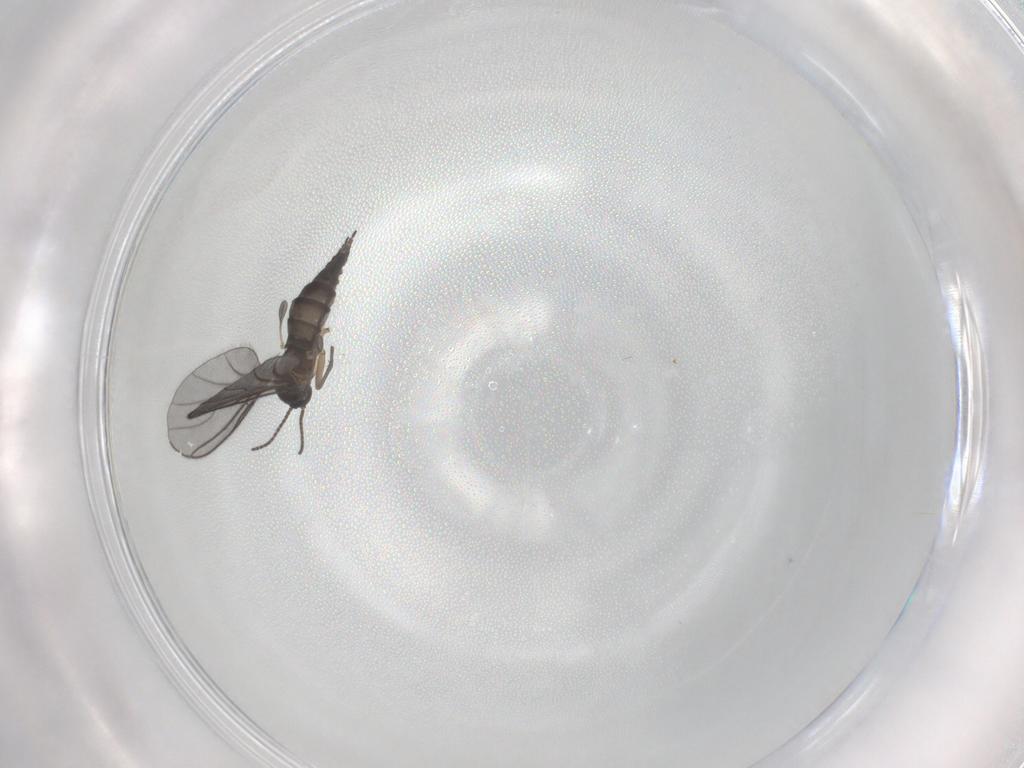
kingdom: Animalia
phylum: Arthropoda
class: Insecta
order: Diptera
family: Sciaridae
